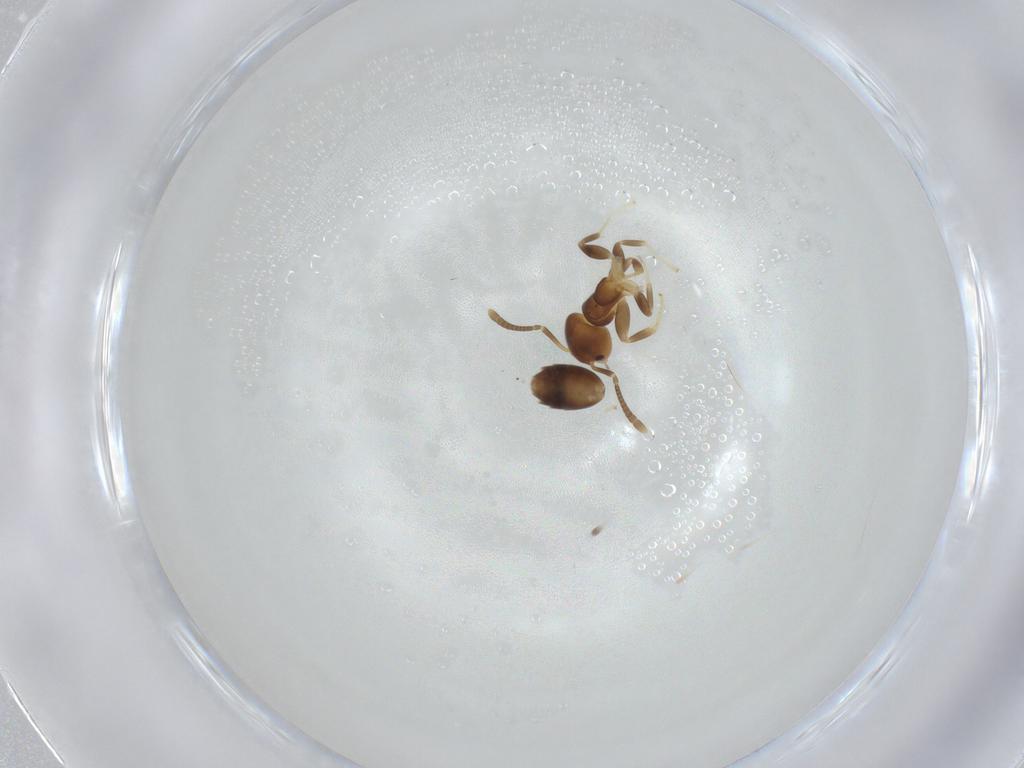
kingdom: Animalia
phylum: Arthropoda
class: Insecta
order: Hymenoptera
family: Formicidae
